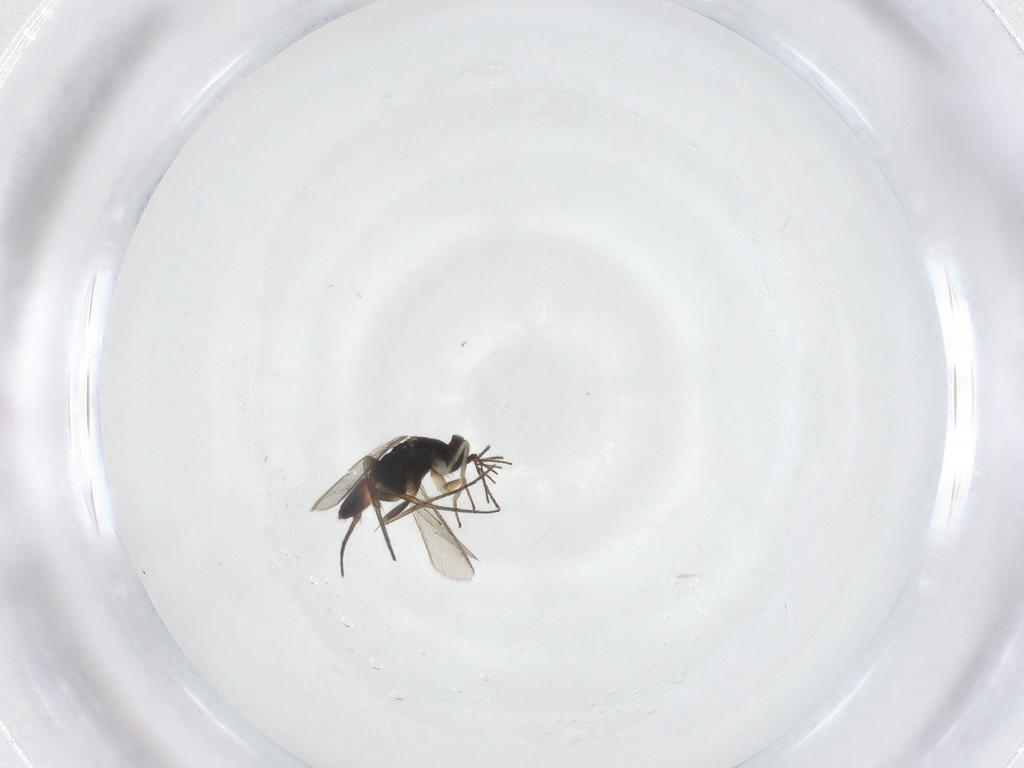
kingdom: Animalia
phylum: Arthropoda
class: Insecta
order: Hymenoptera
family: Eulophidae
